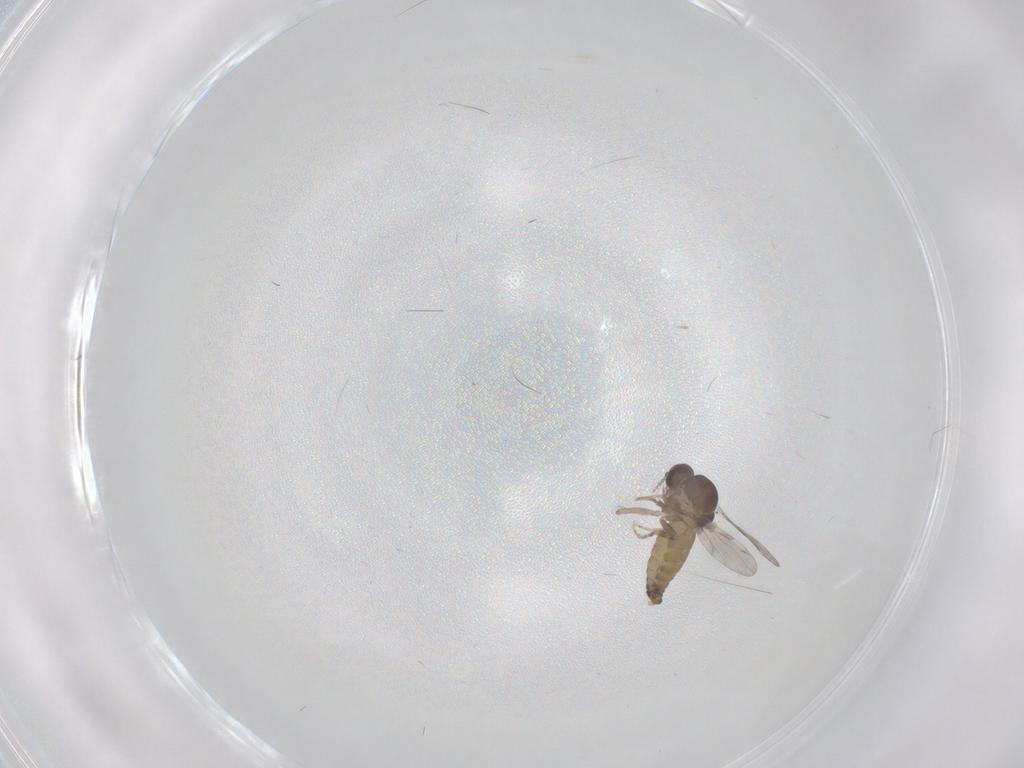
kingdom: Animalia
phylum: Arthropoda
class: Insecta
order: Diptera
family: Ceratopogonidae
